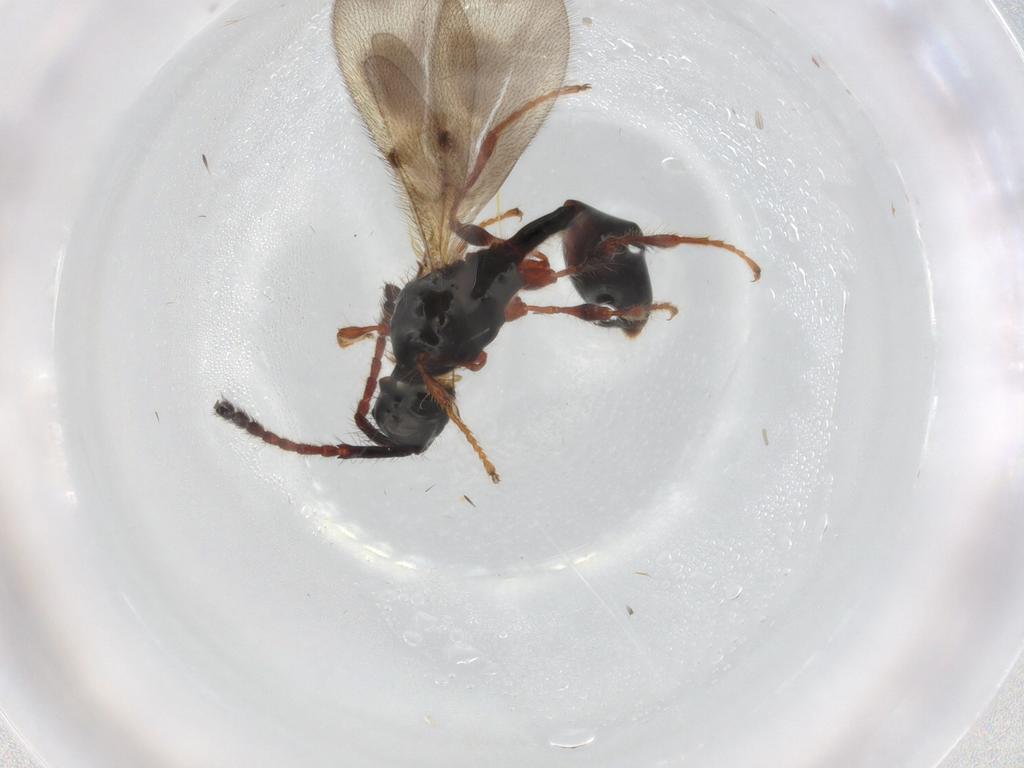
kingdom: Animalia
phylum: Arthropoda
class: Insecta
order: Hymenoptera
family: Diapriidae
